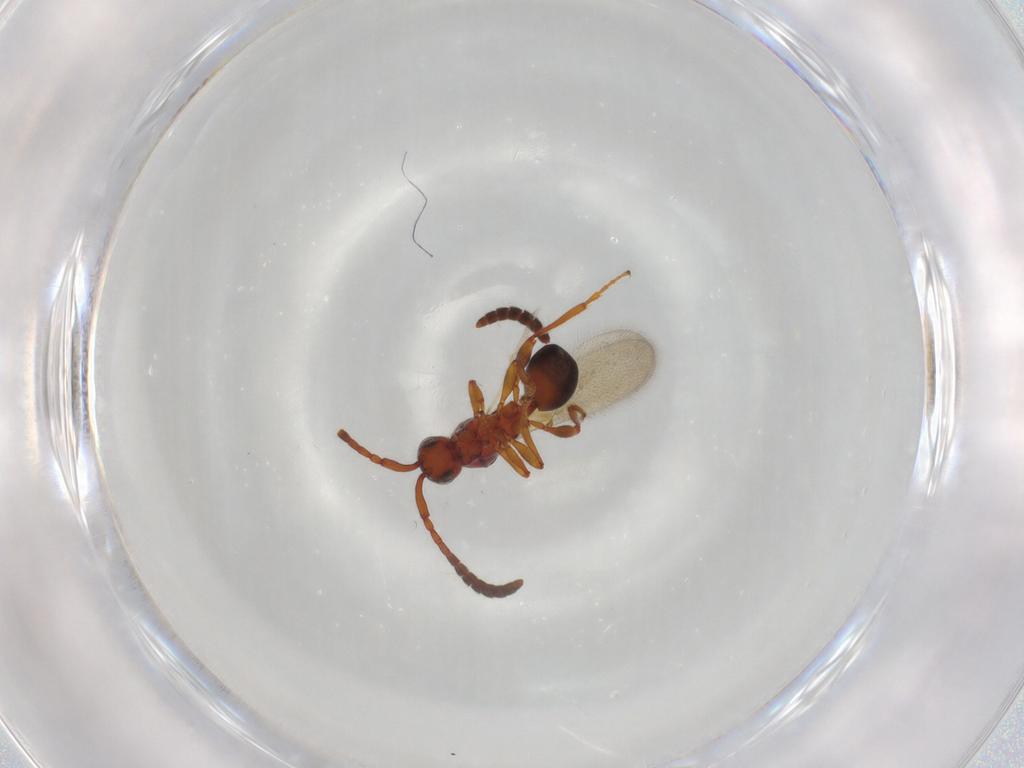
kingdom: Animalia
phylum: Arthropoda
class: Insecta
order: Hymenoptera
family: Diapriidae
